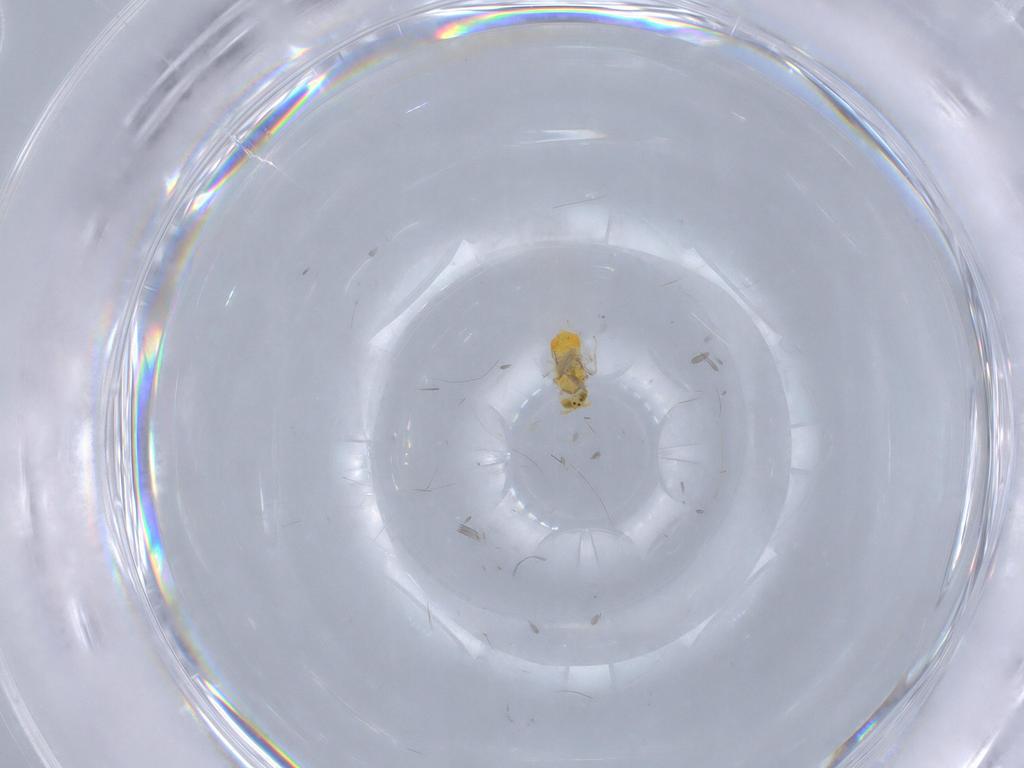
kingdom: Animalia
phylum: Arthropoda
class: Insecta
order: Hymenoptera
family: Aphelinidae
